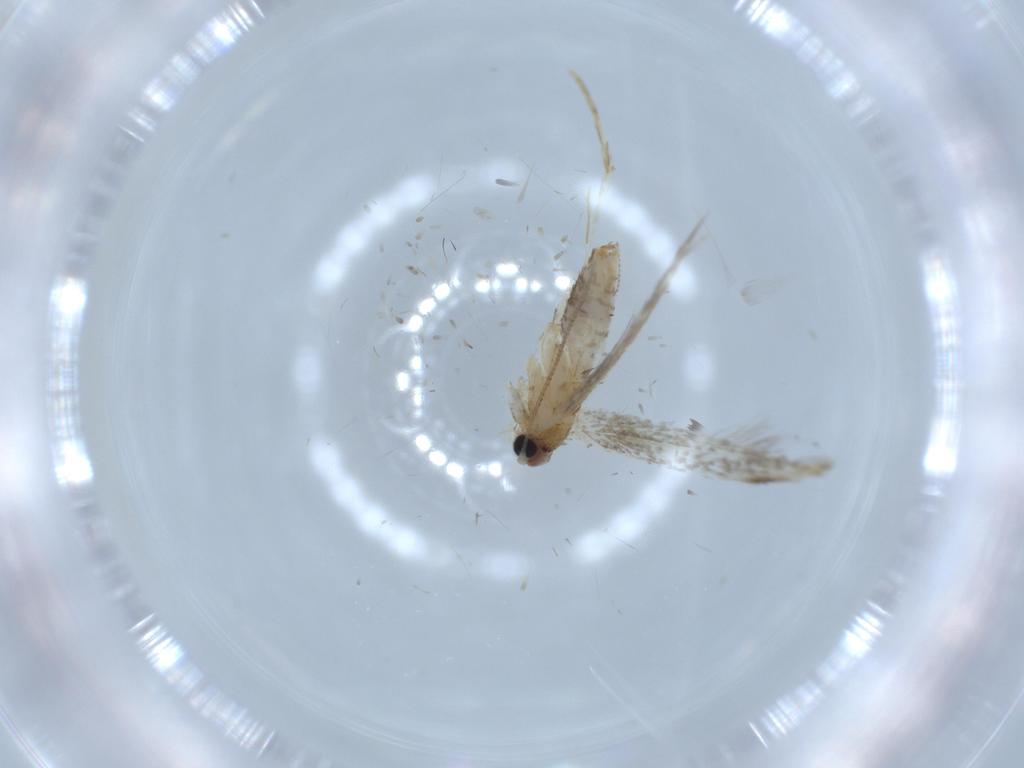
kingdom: Animalia
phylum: Arthropoda
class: Insecta
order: Lepidoptera
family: Tineidae
